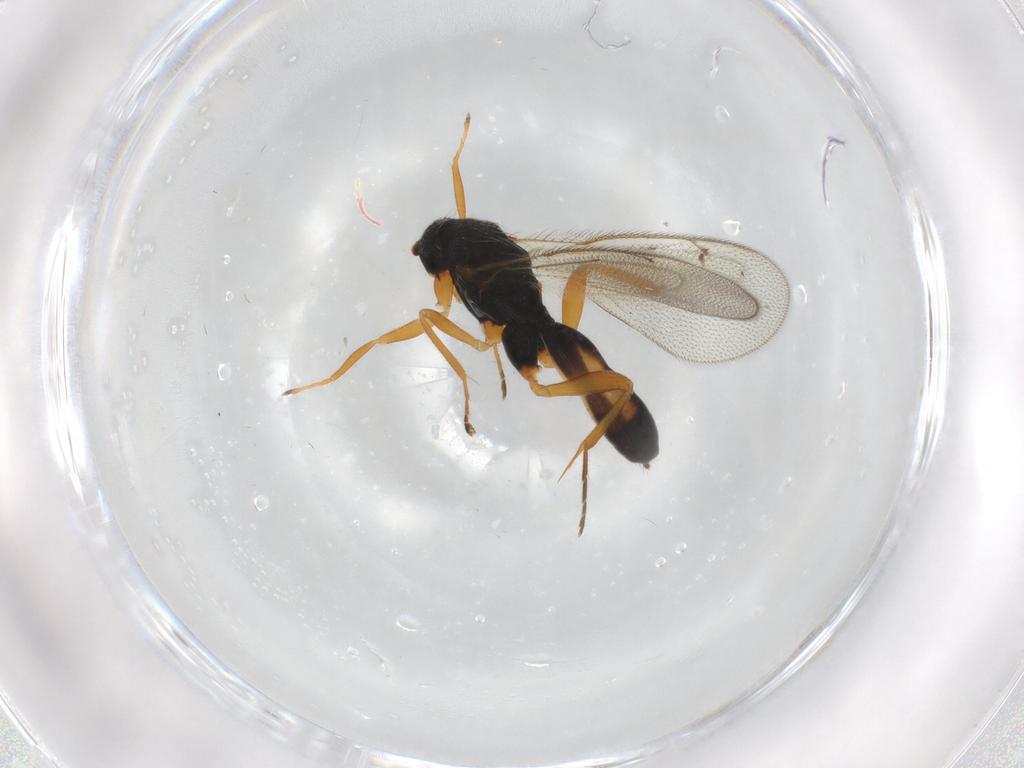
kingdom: Animalia
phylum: Arthropoda
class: Insecta
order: Hymenoptera
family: Eulophidae
